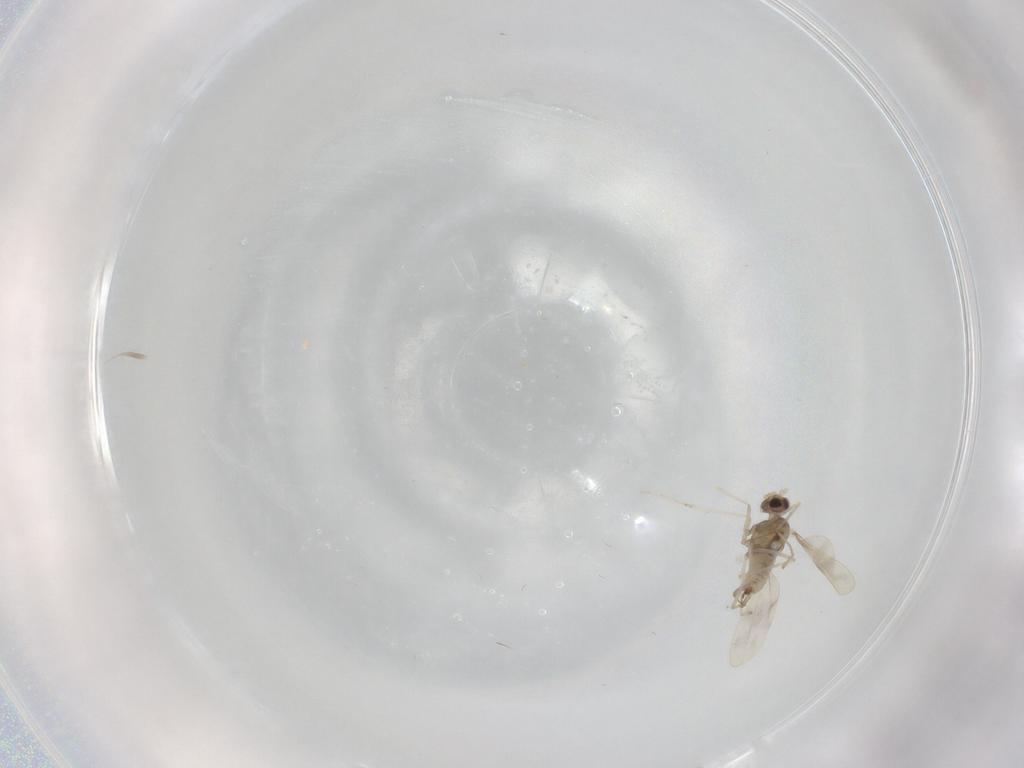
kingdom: Animalia
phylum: Arthropoda
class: Insecta
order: Diptera
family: Cecidomyiidae
